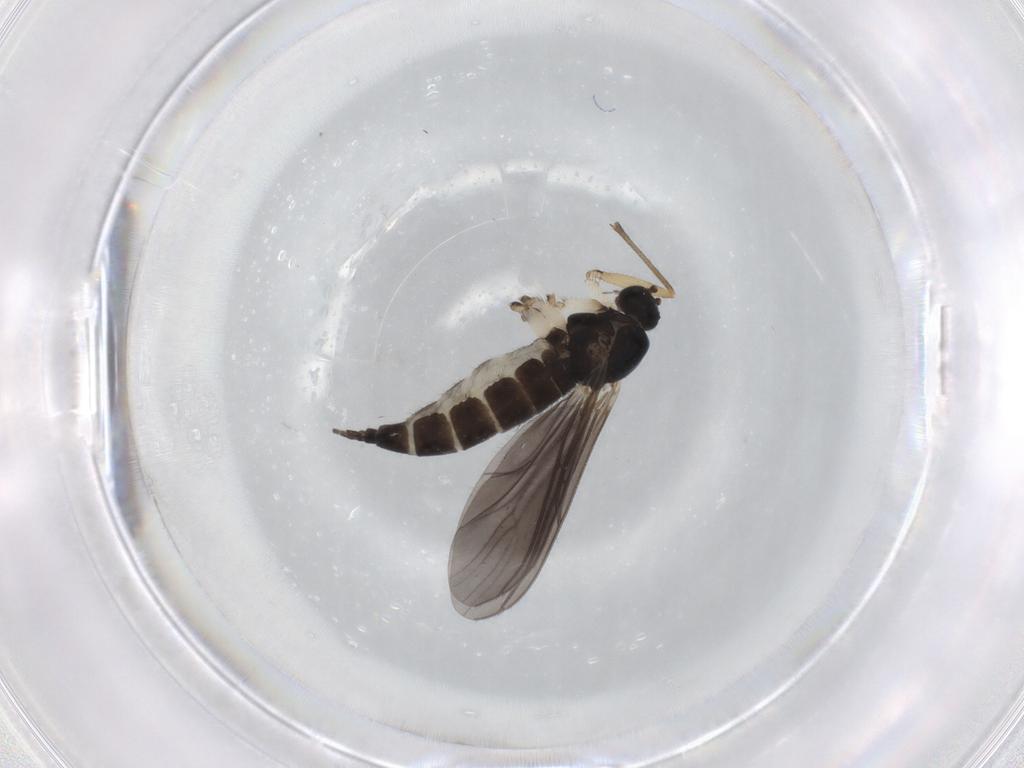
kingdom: Animalia
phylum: Arthropoda
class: Insecta
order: Diptera
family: Sciaridae
